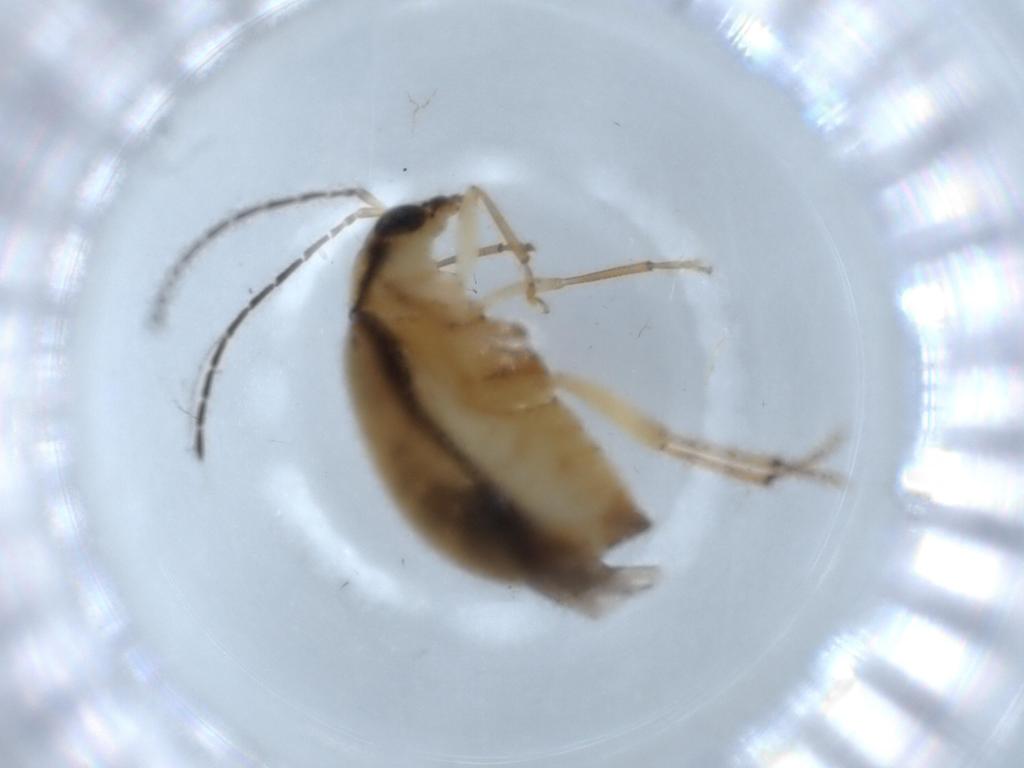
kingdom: Animalia
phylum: Arthropoda
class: Insecta
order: Coleoptera
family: Chrysomelidae
